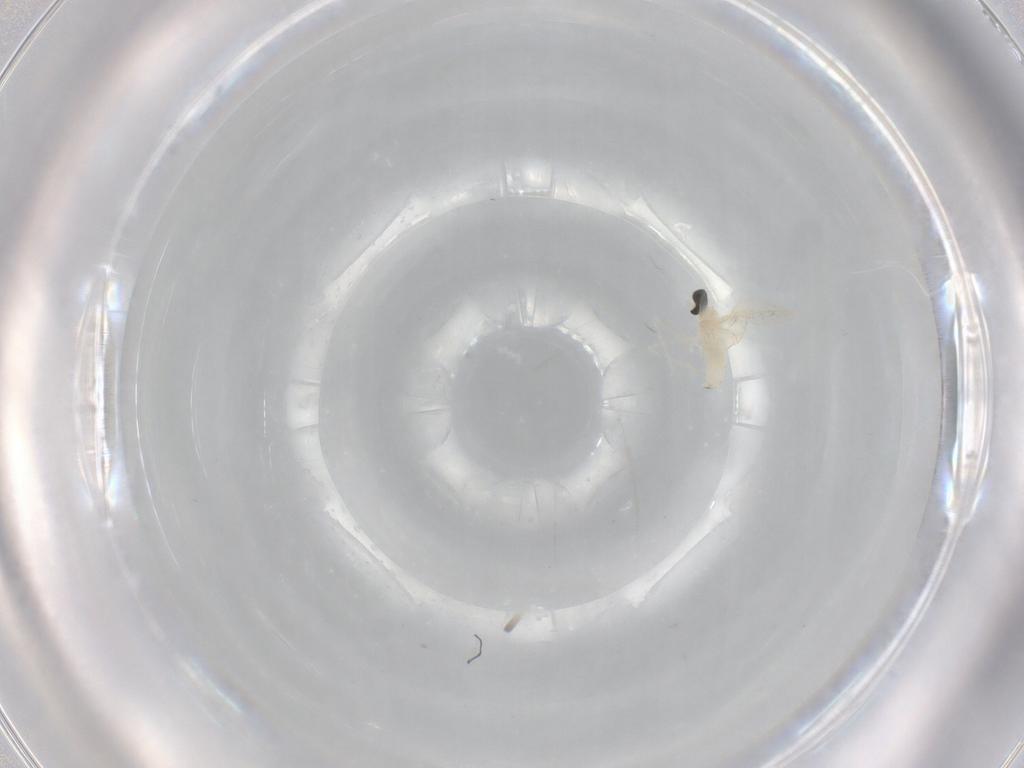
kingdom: Animalia
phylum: Arthropoda
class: Insecta
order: Diptera
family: Cecidomyiidae
